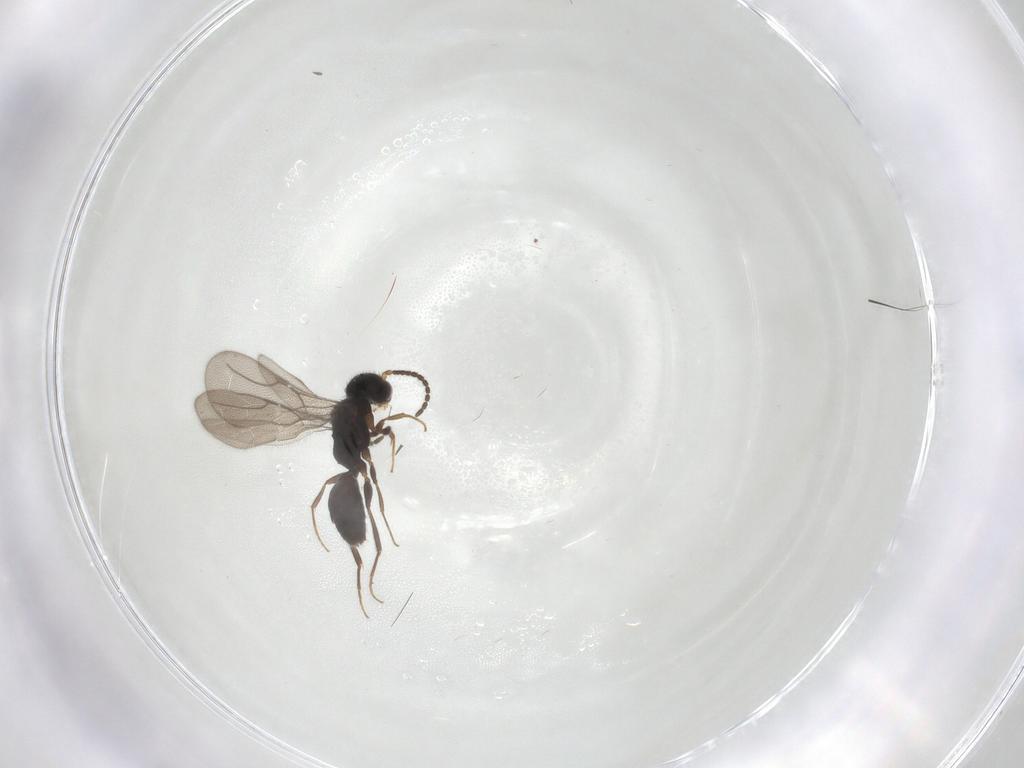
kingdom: Animalia
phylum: Arthropoda
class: Insecta
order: Hymenoptera
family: Bethylidae
